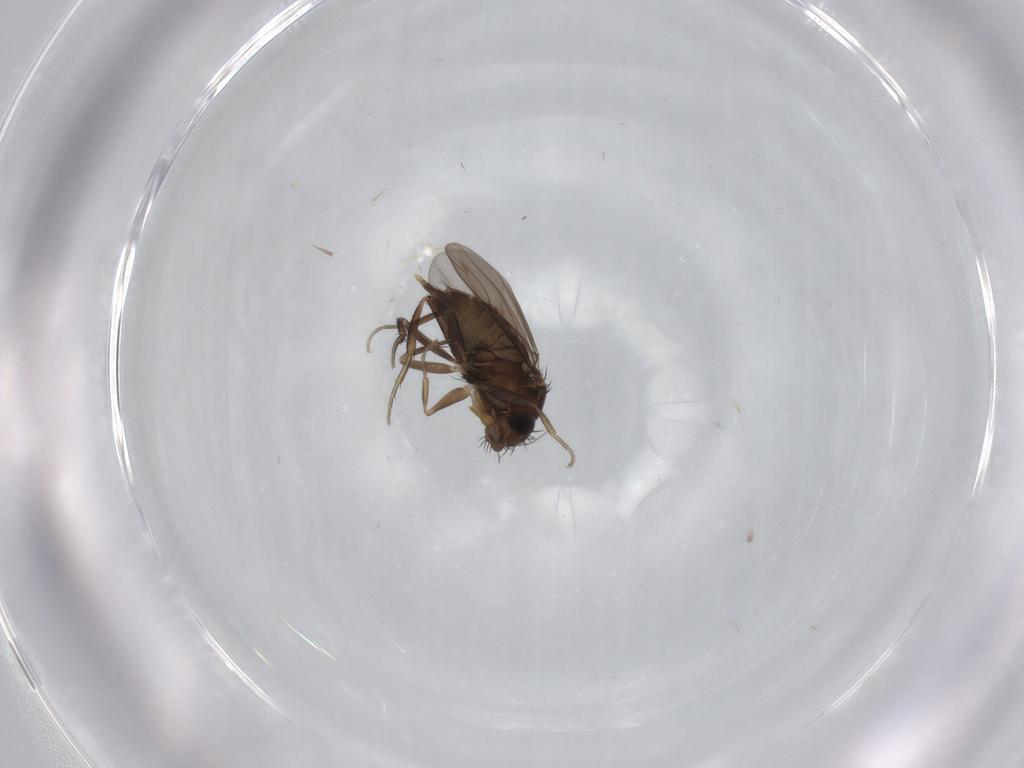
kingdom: Animalia
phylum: Arthropoda
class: Insecta
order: Diptera
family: Phoridae
